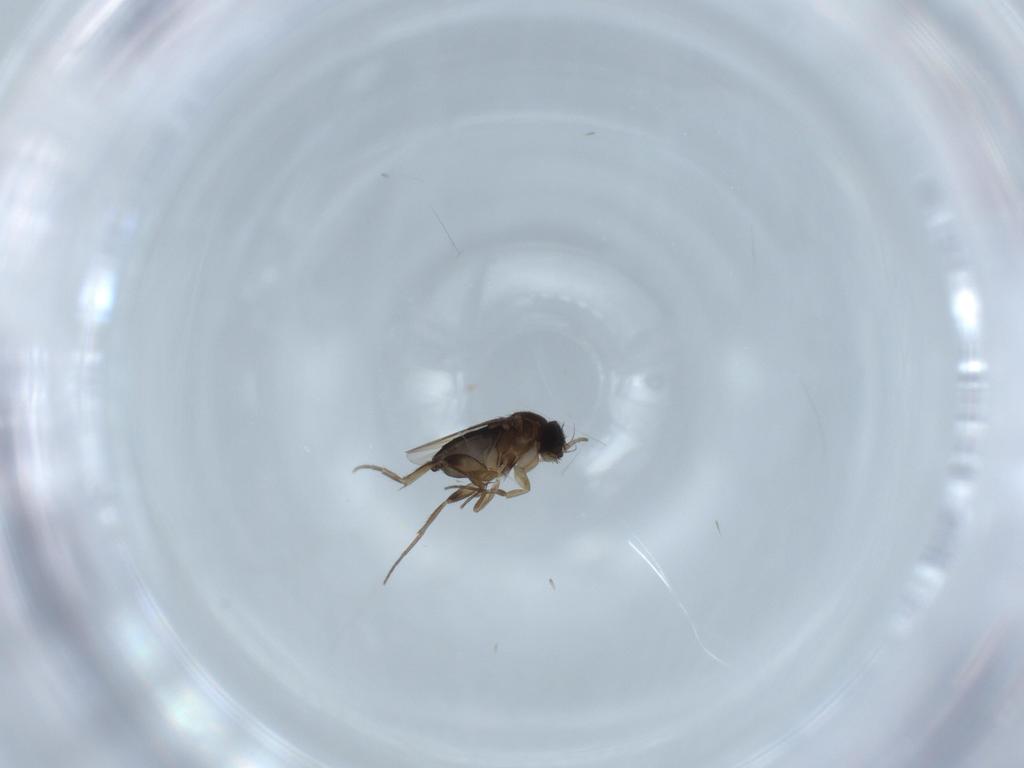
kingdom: Animalia
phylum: Arthropoda
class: Insecta
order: Diptera
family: Phoridae
